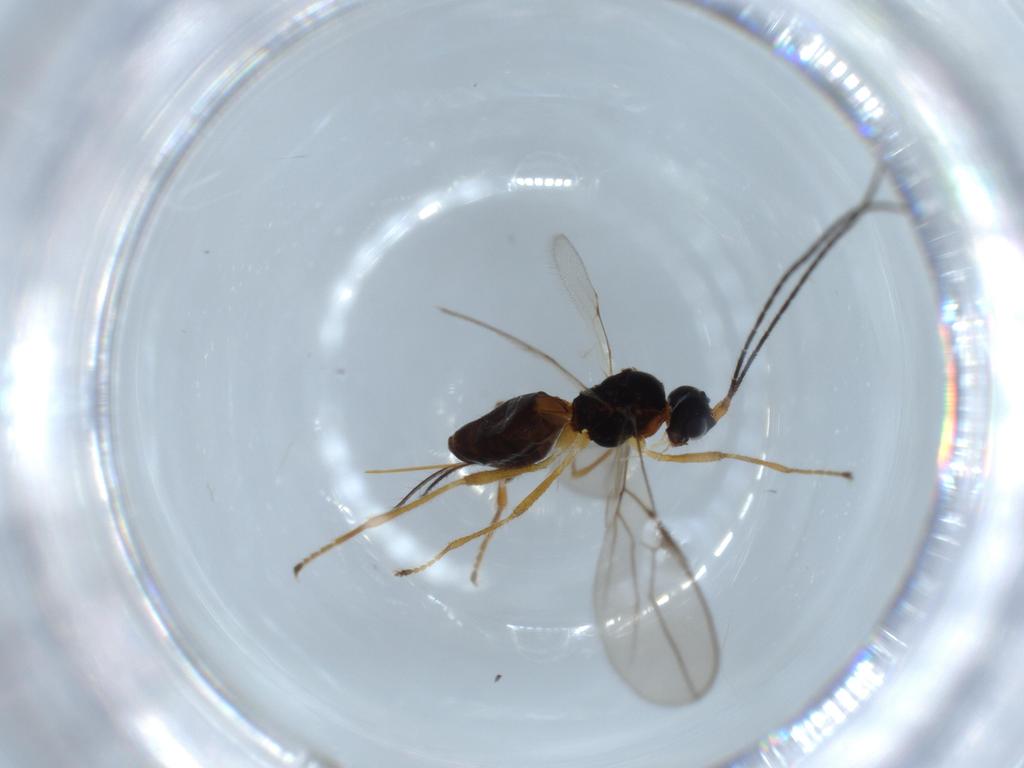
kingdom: Animalia
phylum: Arthropoda
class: Insecta
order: Hymenoptera
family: Braconidae
